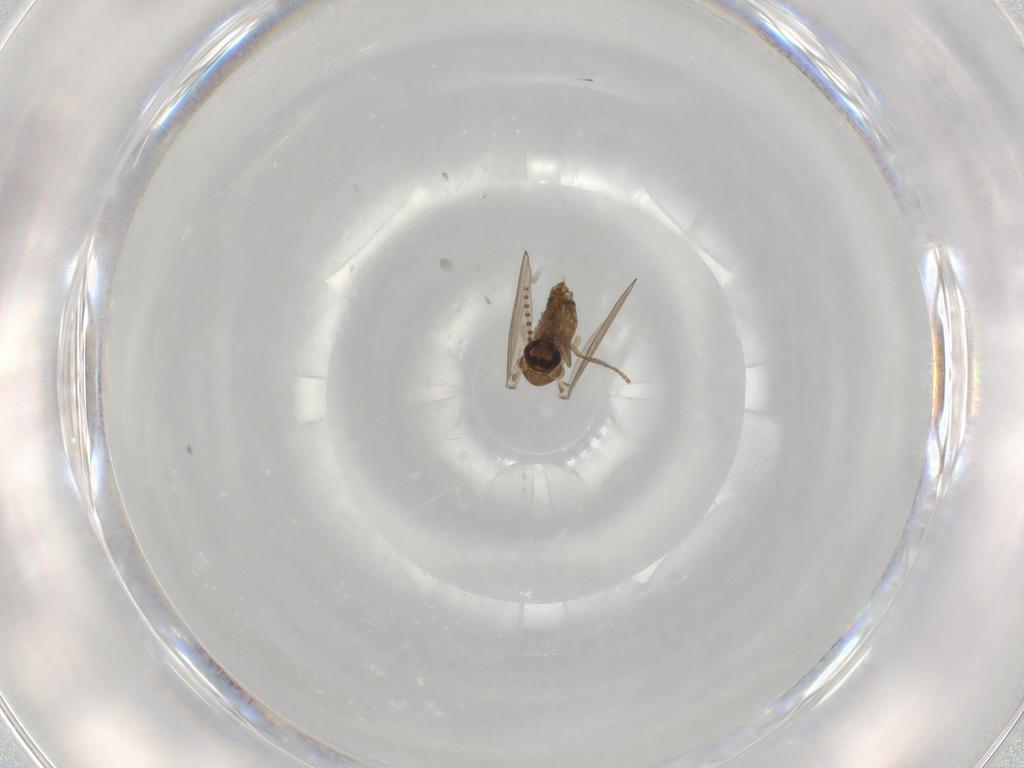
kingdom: Animalia
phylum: Arthropoda
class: Insecta
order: Diptera
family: Psychodidae
